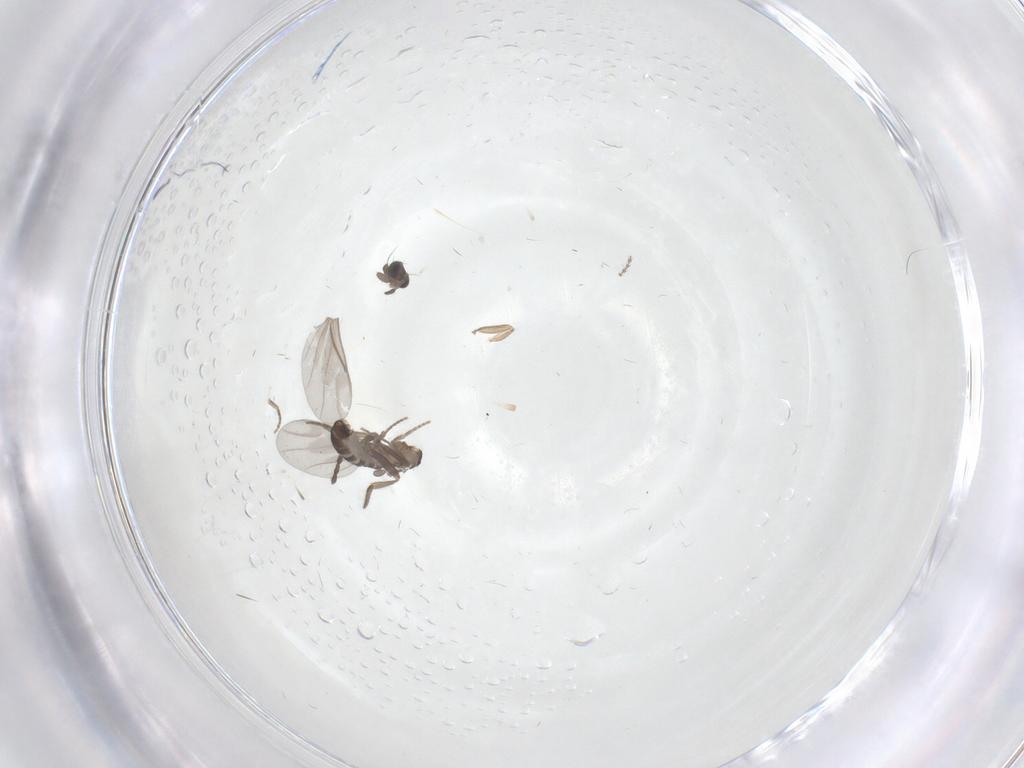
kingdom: Animalia
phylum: Arthropoda
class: Insecta
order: Diptera
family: Cecidomyiidae
